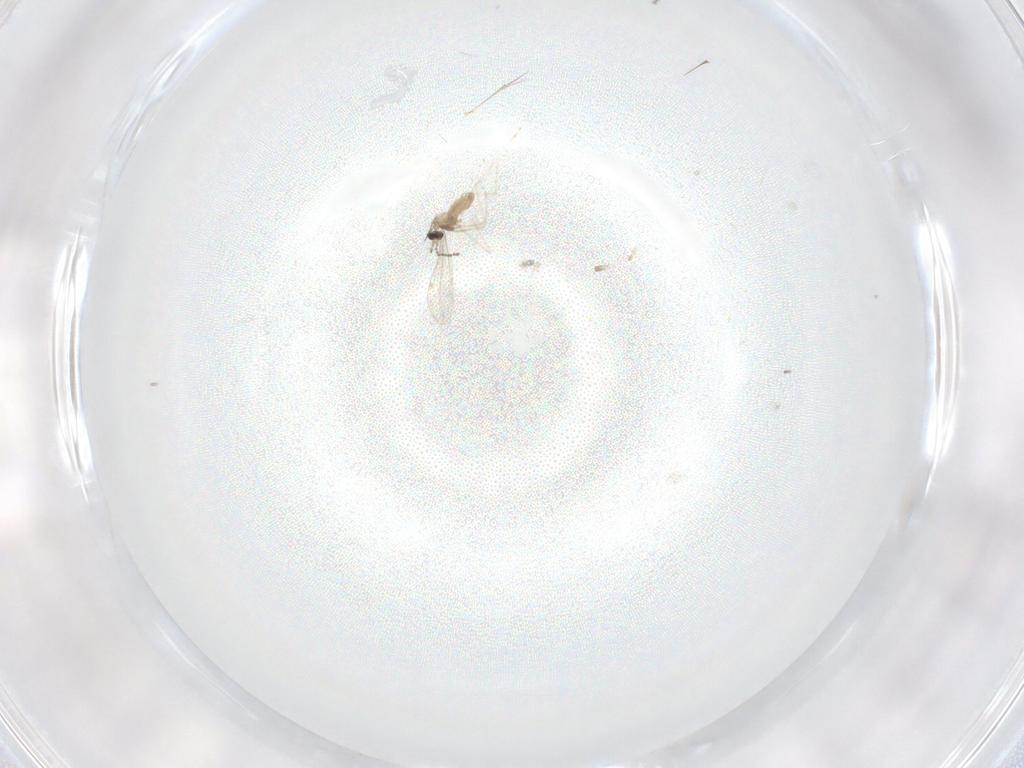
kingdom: Animalia
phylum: Arthropoda
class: Insecta
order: Diptera
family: Cecidomyiidae
